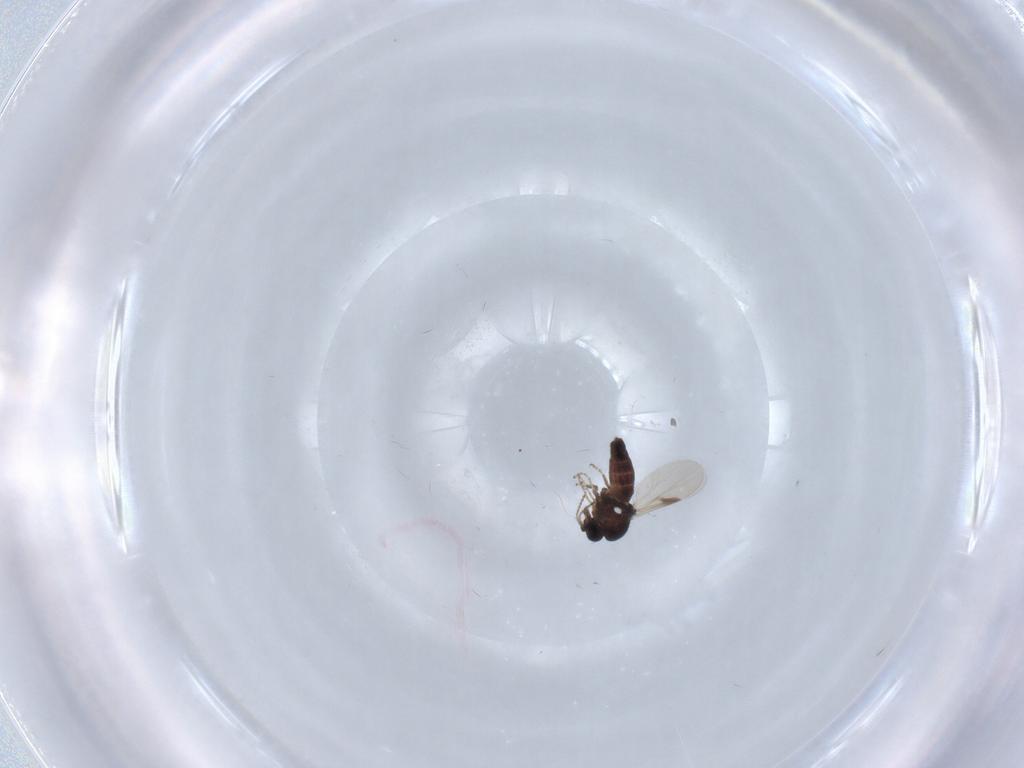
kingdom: Animalia
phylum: Arthropoda
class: Insecta
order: Diptera
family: Ceratopogonidae
